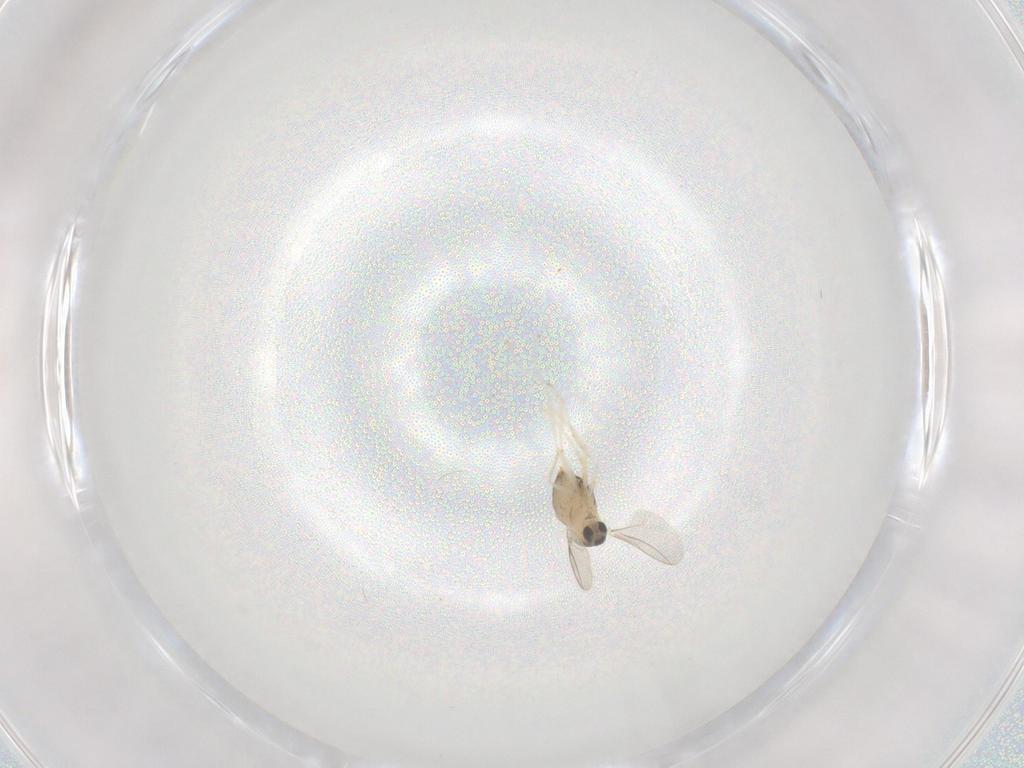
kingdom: Animalia
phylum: Arthropoda
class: Insecta
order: Diptera
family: Cecidomyiidae
